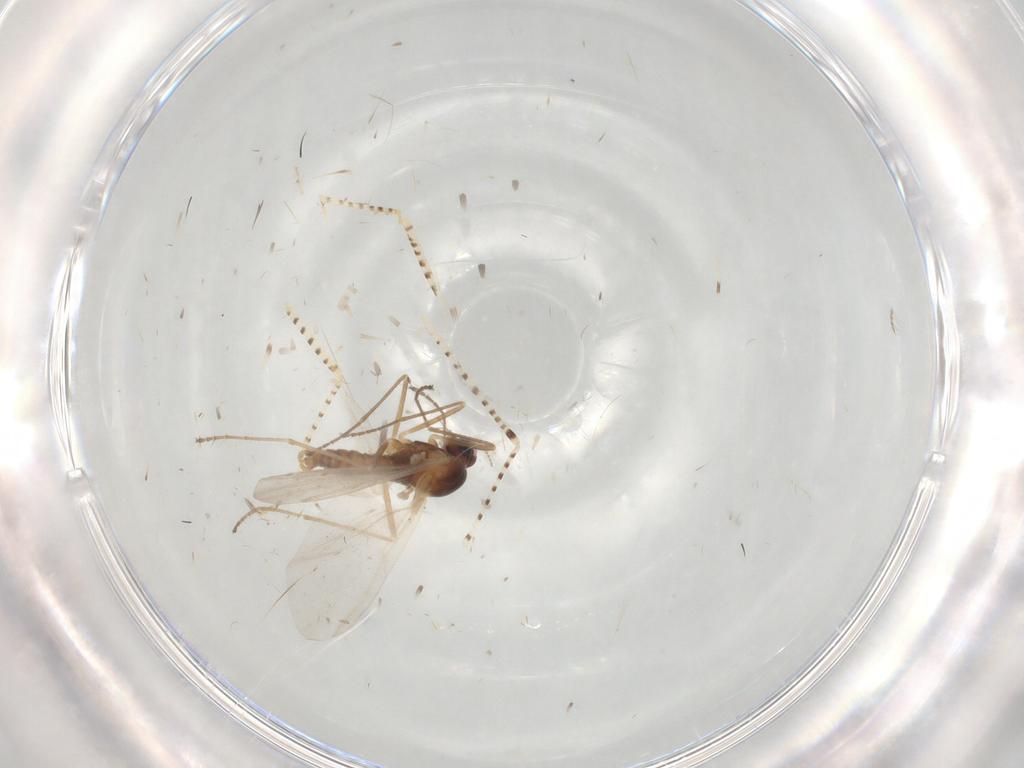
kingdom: Animalia
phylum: Arthropoda
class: Insecta
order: Diptera
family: Cecidomyiidae
